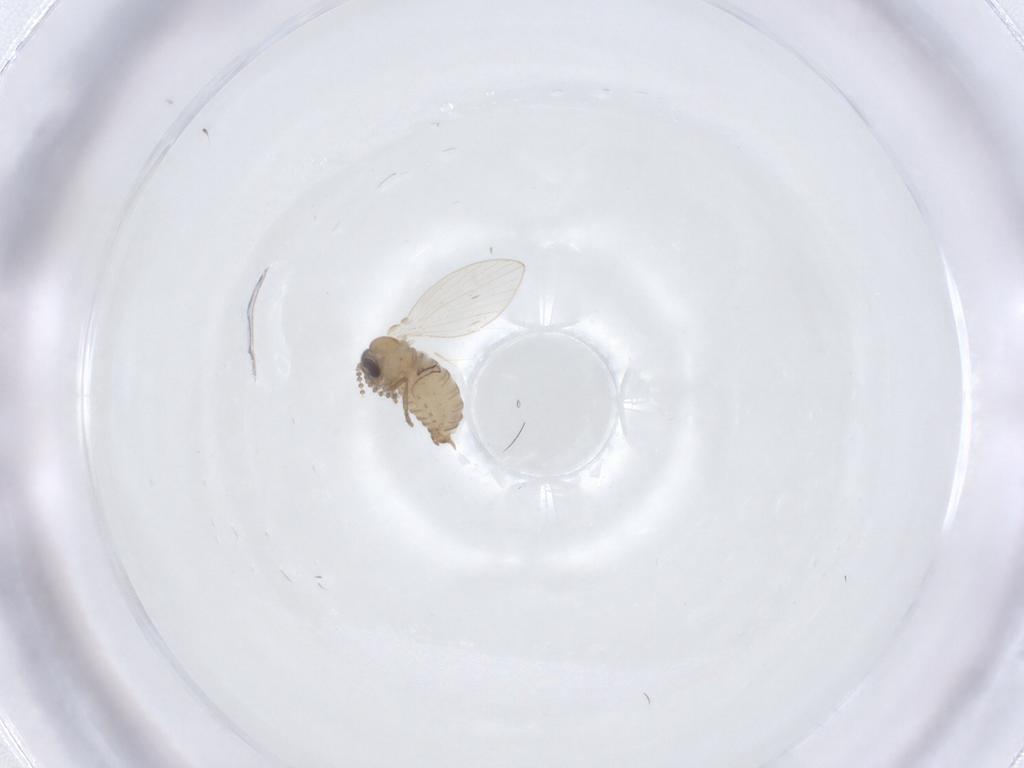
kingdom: Animalia
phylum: Arthropoda
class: Insecta
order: Diptera
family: Psychodidae
